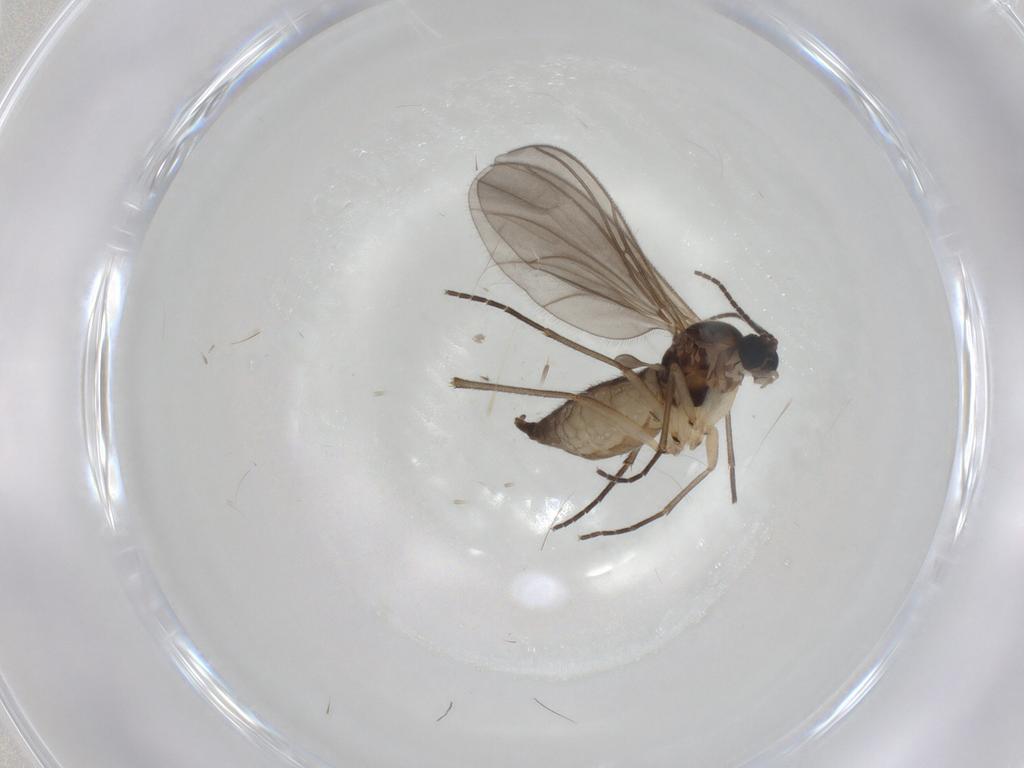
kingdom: Animalia
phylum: Arthropoda
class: Insecta
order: Diptera
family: Sciaridae
